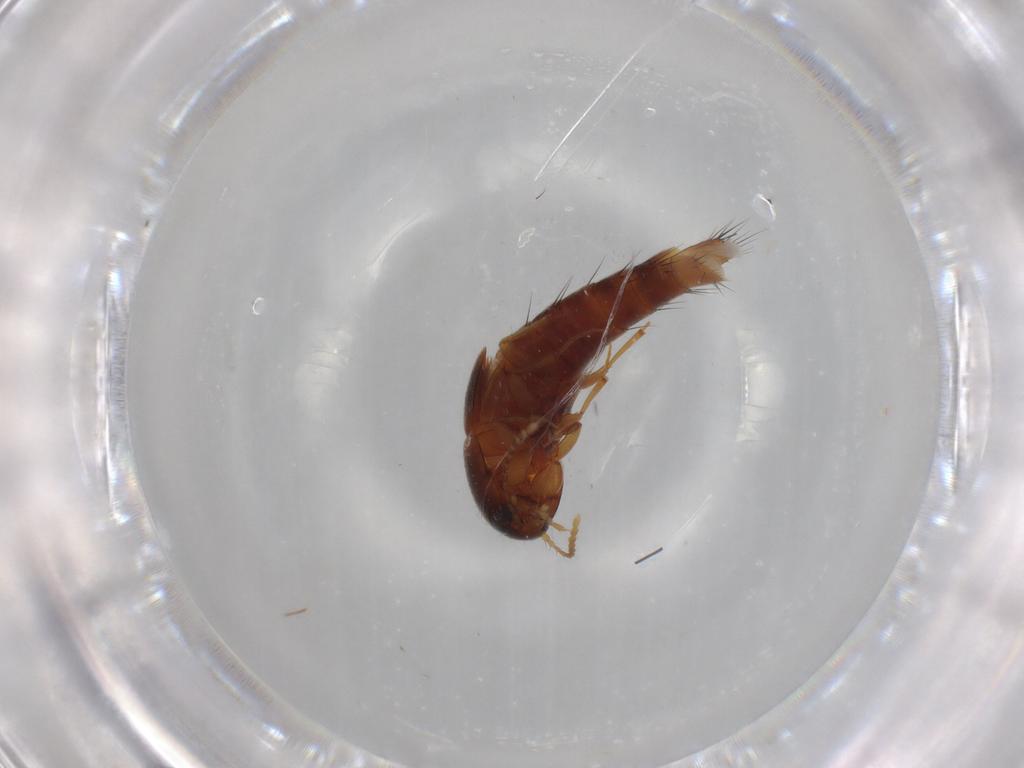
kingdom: Animalia
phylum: Arthropoda
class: Insecta
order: Coleoptera
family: Staphylinidae
